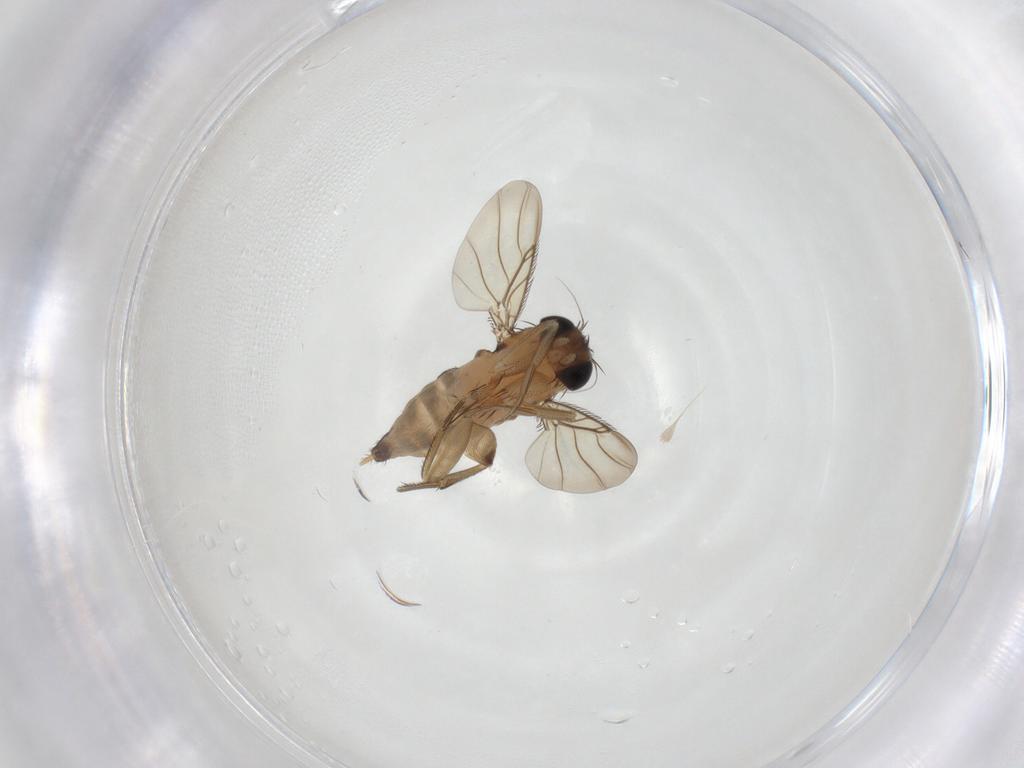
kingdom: Animalia
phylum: Arthropoda
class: Insecta
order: Diptera
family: Phoridae
